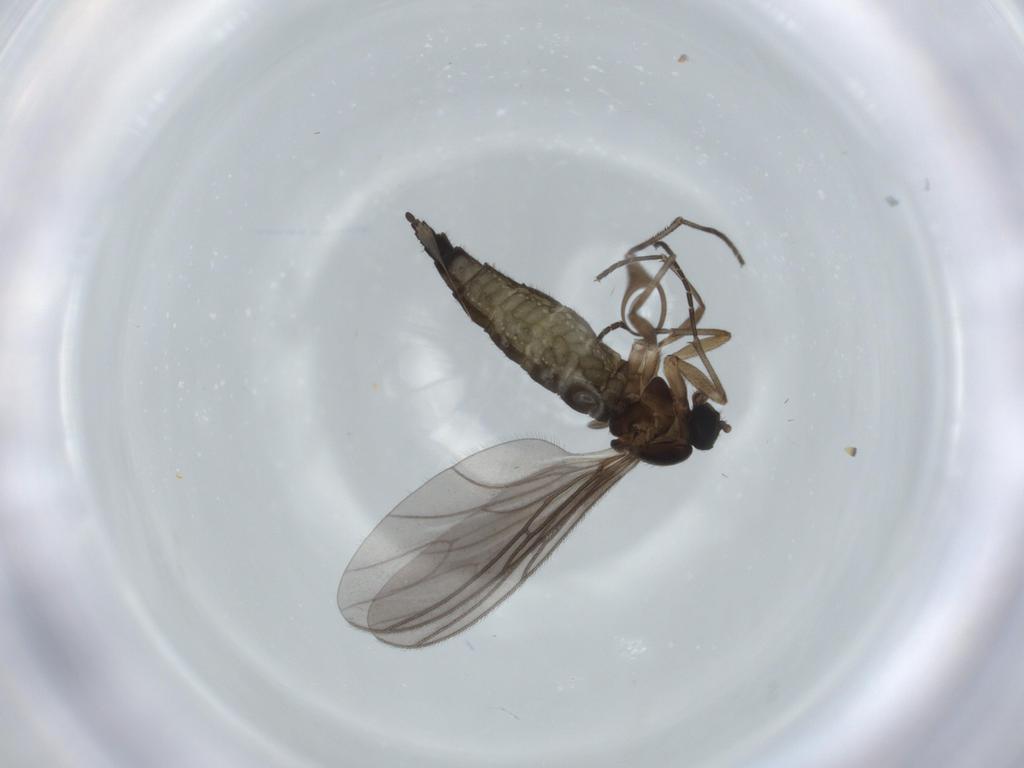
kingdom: Animalia
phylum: Arthropoda
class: Insecta
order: Diptera
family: Sciaridae
